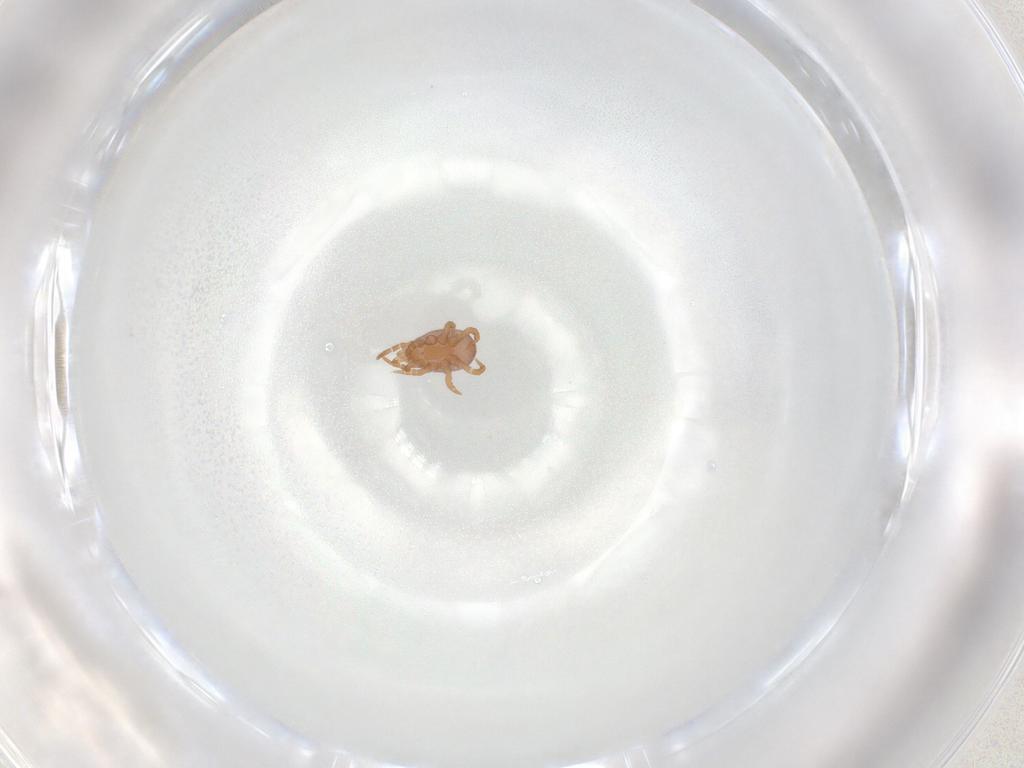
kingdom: Animalia
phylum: Arthropoda
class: Arachnida
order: Mesostigmata
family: Eviphididae
